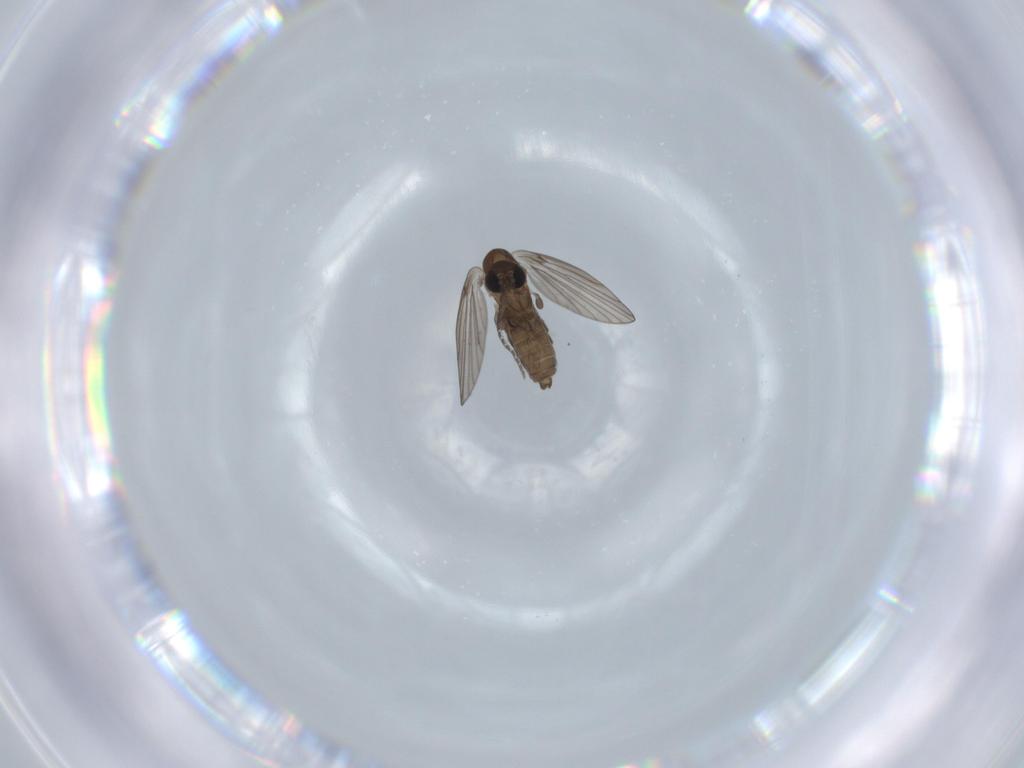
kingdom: Animalia
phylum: Arthropoda
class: Insecta
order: Diptera
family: Psychodidae
